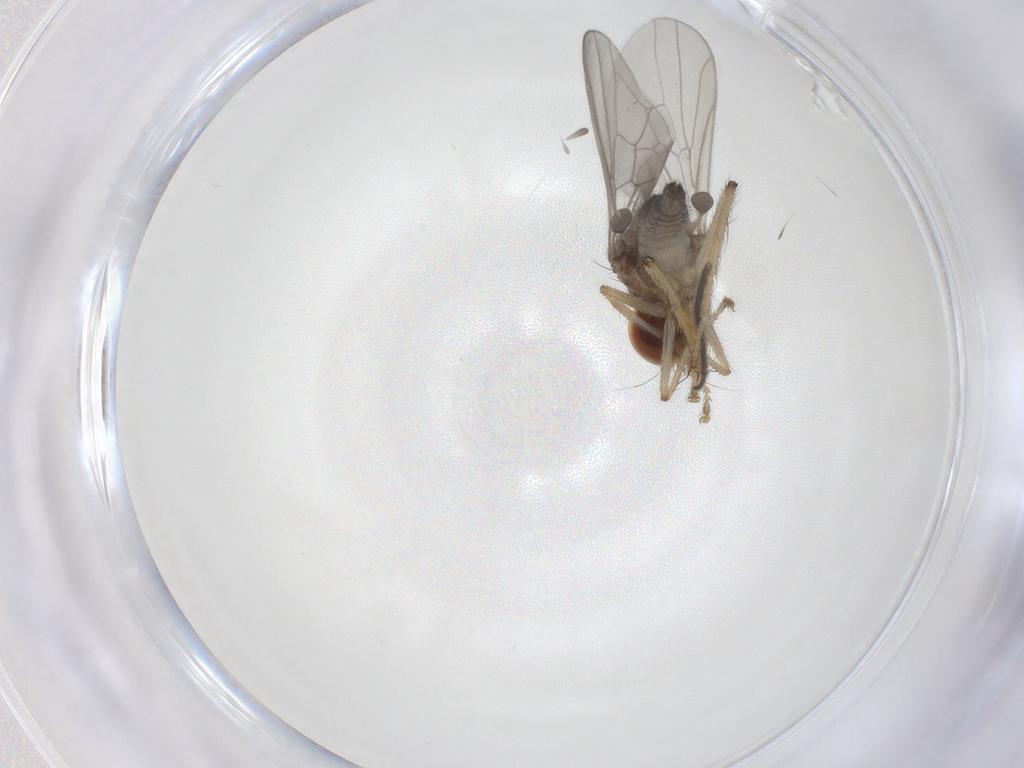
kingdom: Animalia
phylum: Arthropoda
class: Insecta
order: Diptera
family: Hybotidae
